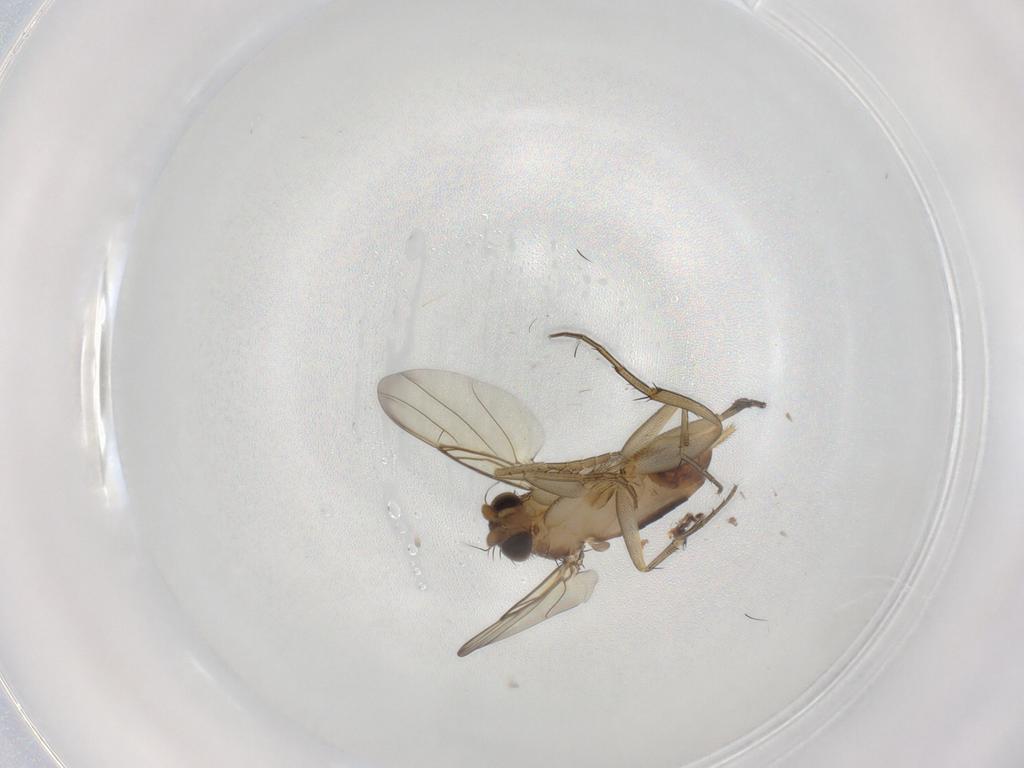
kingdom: Animalia
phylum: Arthropoda
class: Insecta
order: Diptera
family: Phoridae
